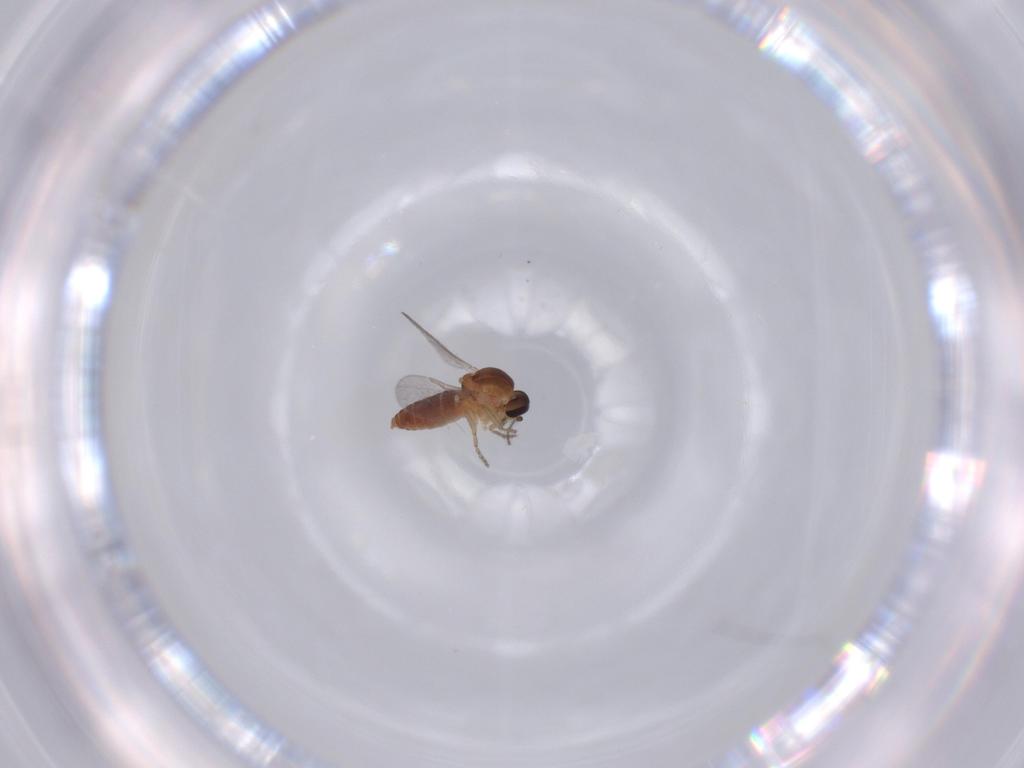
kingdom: Animalia
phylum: Arthropoda
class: Insecta
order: Diptera
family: Ceratopogonidae
